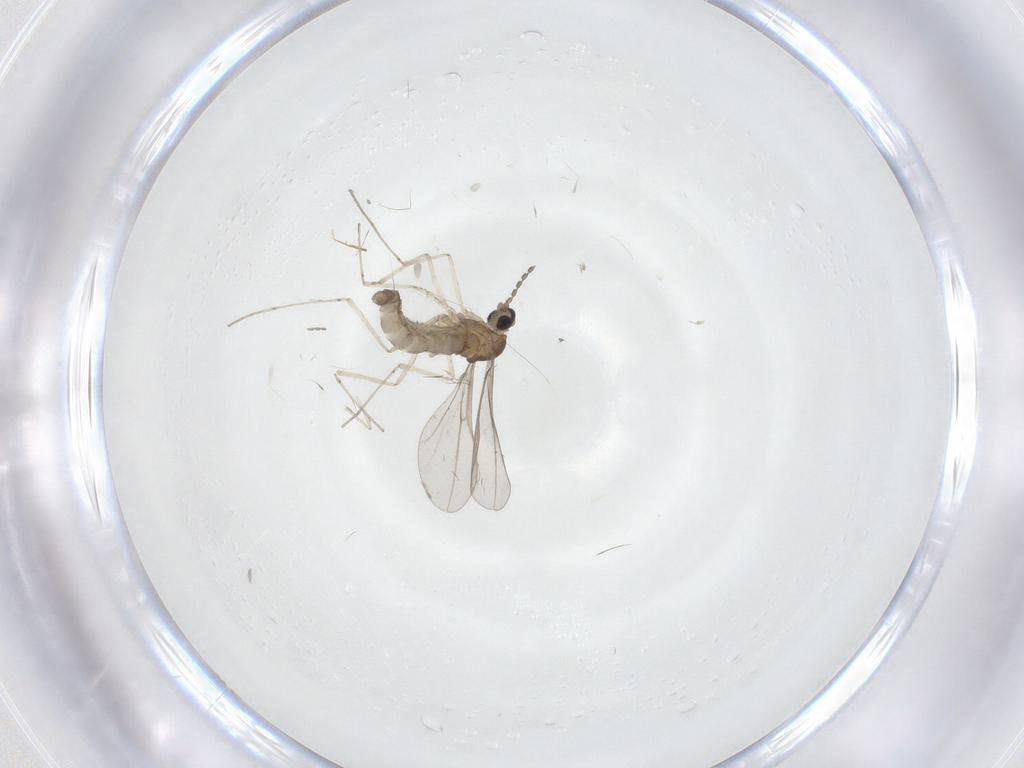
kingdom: Animalia
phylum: Arthropoda
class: Insecta
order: Diptera
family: Cecidomyiidae
